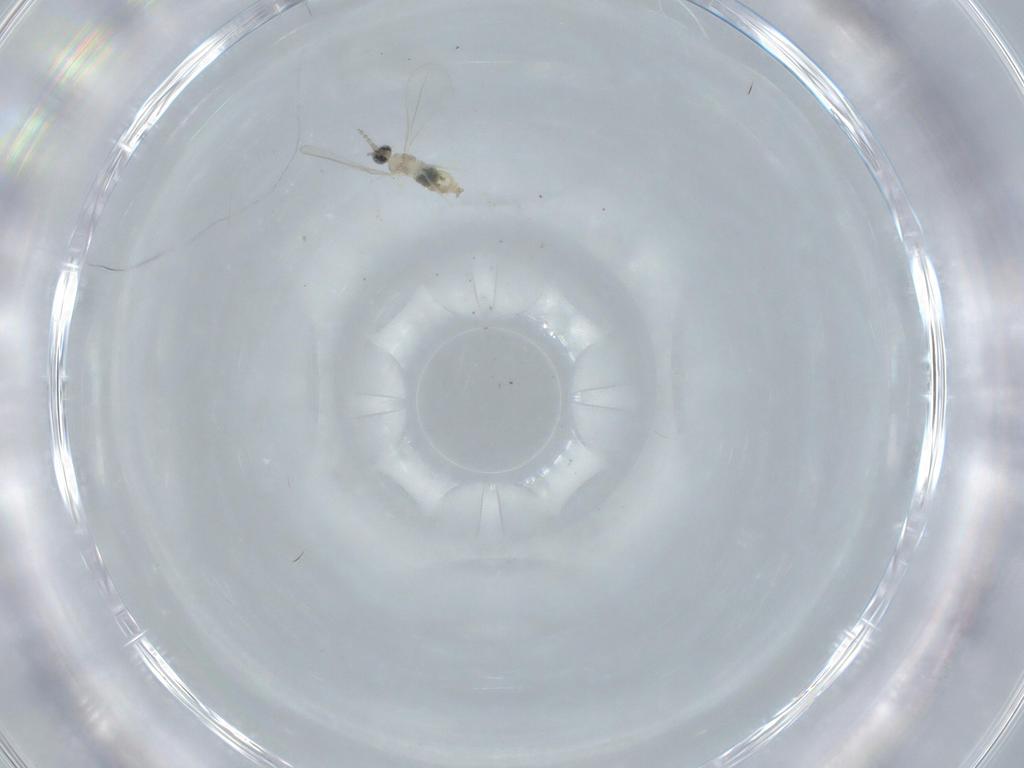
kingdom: Animalia
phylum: Arthropoda
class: Insecta
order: Diptera
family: Cecidomyiidae
